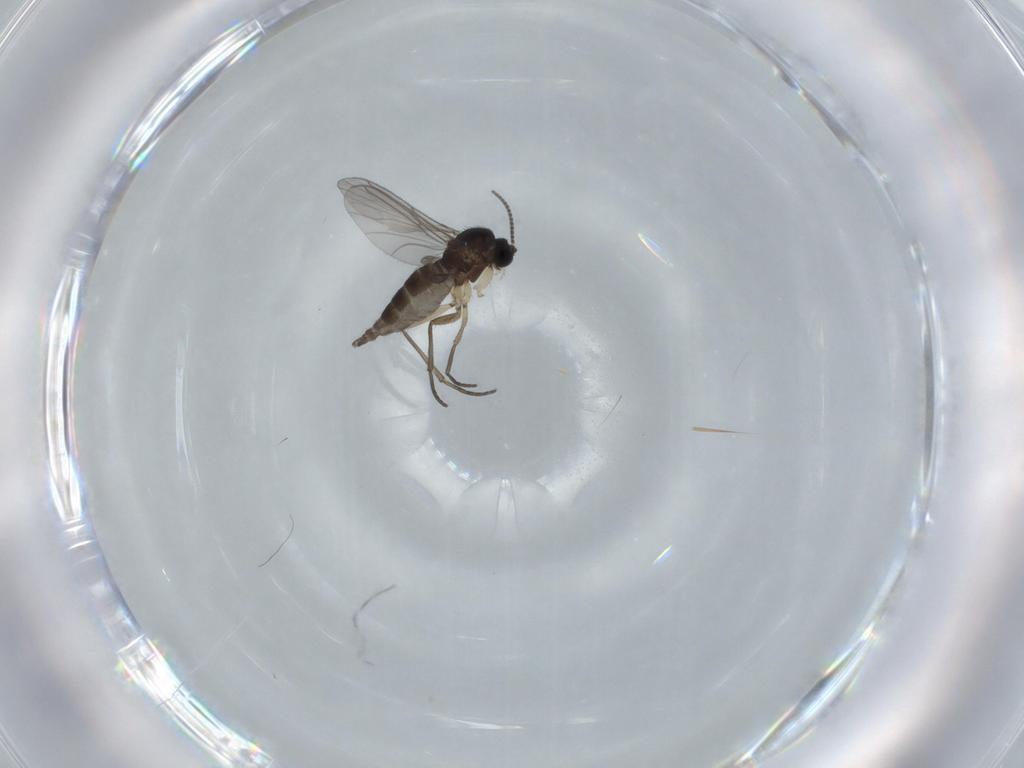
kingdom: Animalia
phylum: Arthropoda
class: Insecta
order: Diptera
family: Sciaridae
